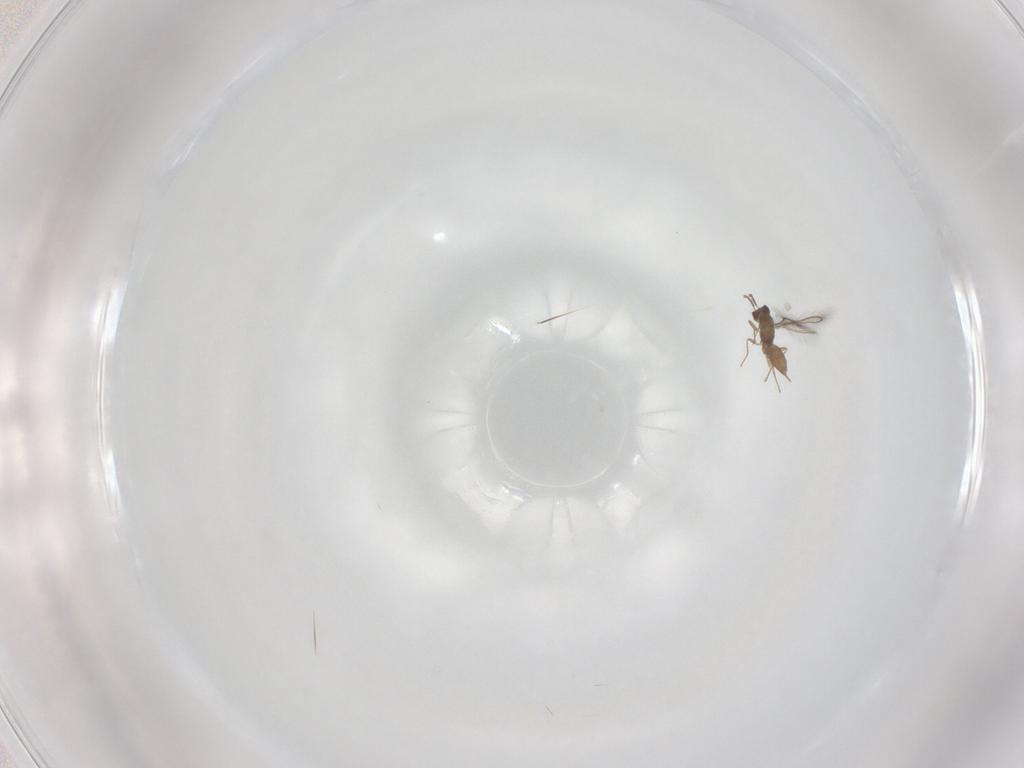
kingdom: Animalia
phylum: Arthropoda
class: Insecta
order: Hymenoptera
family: Mymaridae
